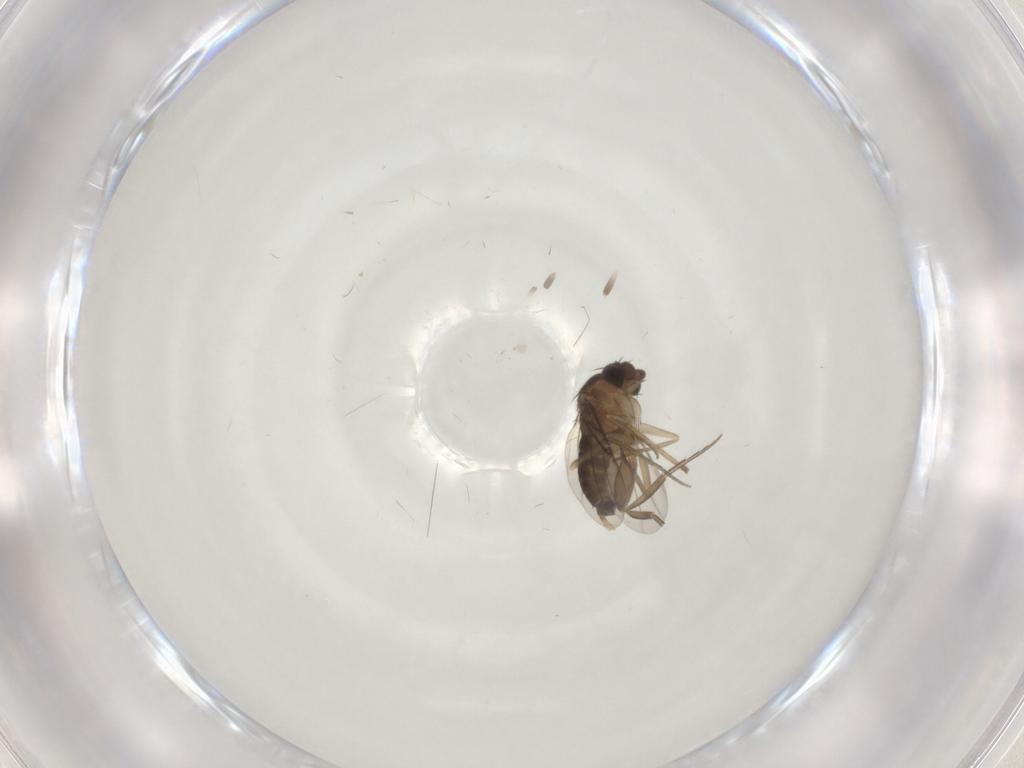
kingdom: Animalia
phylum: Arthropoda
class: Insecta
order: Diptera
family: Phoridae
